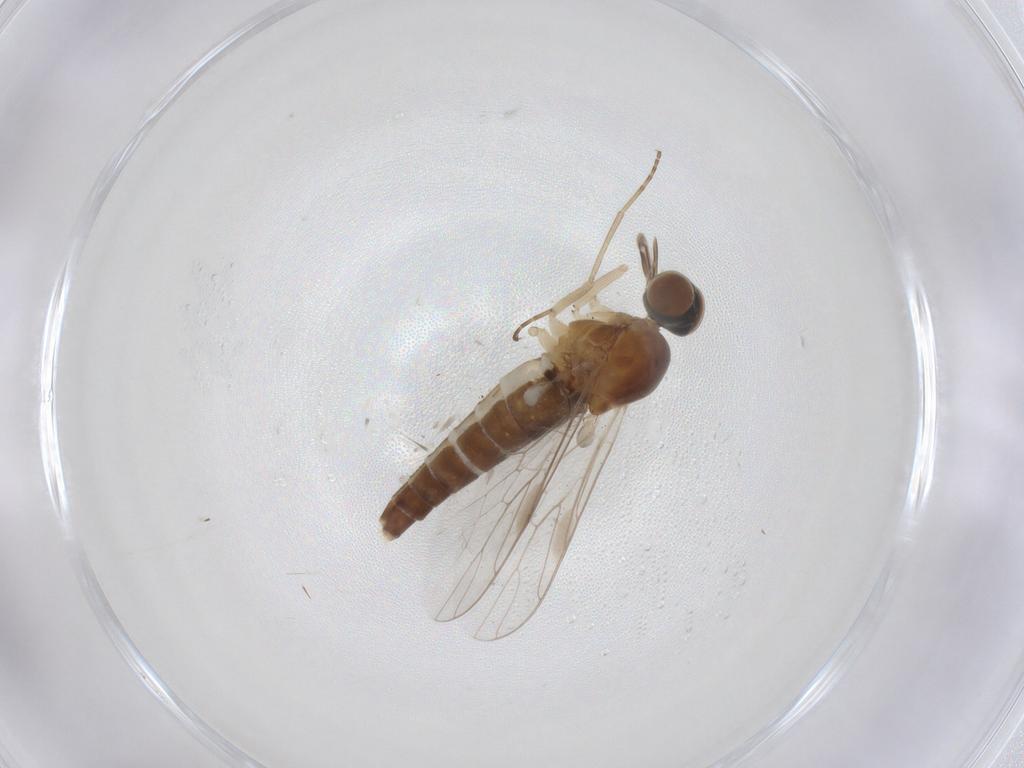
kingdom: Animalia
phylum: Arthropoda
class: Insecta
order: Diptera
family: Scenopinidae
